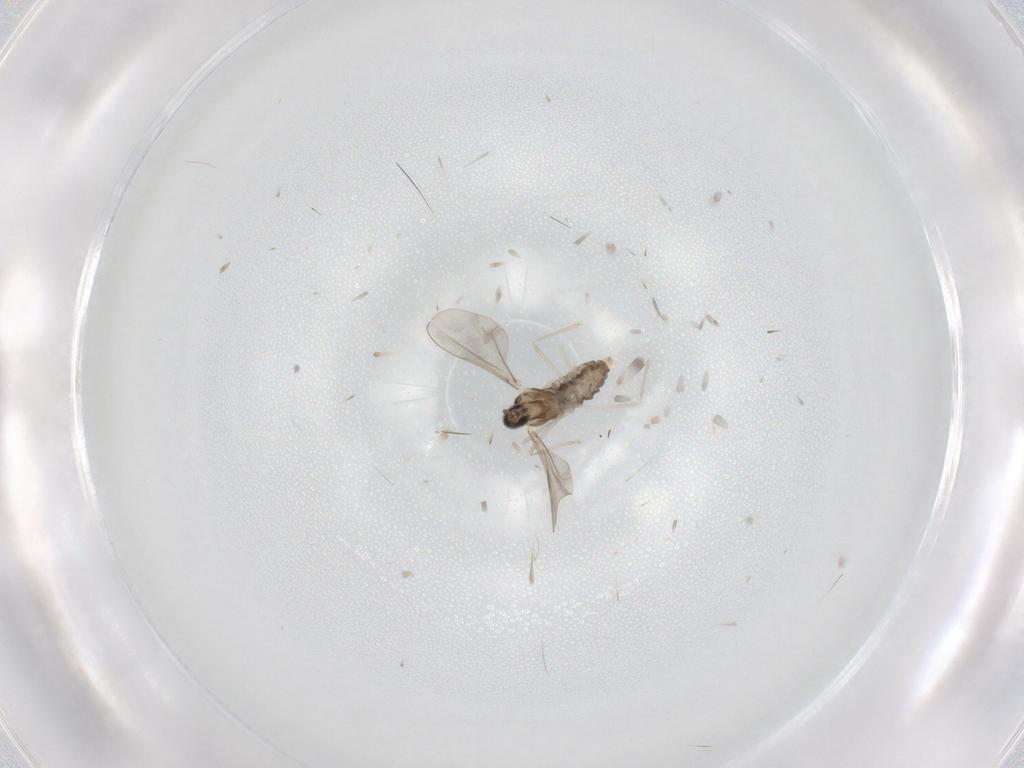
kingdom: Animalia
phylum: Arthropoda
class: Insecta
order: Diptera
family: Cecidomyiidae
